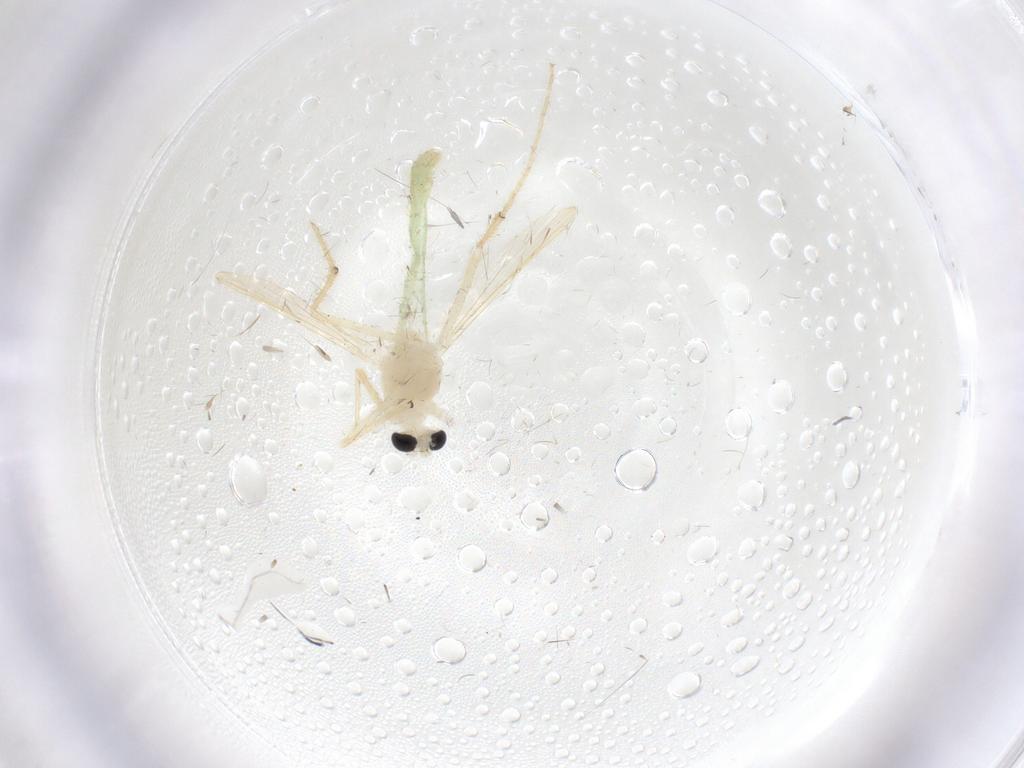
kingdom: Animalia
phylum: Arthropoda
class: Insecta
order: Diptera
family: Chironomidae
